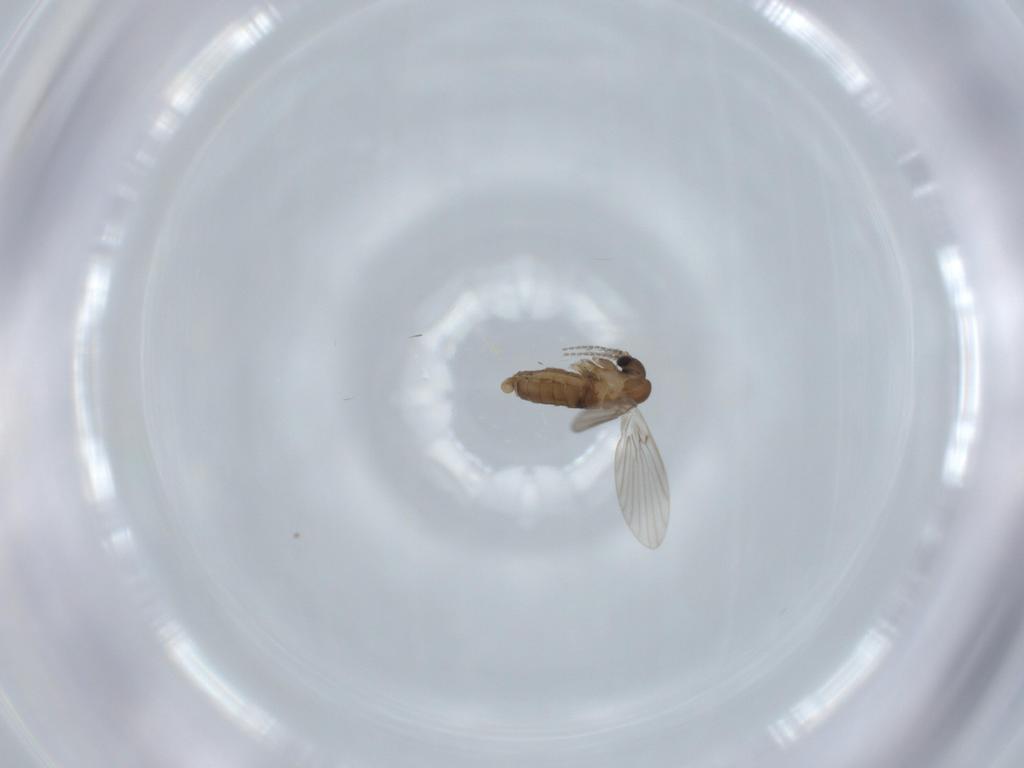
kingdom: Animalia
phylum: Arthropoda
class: Insecta
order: Diptera
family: Cecidomyiidae
